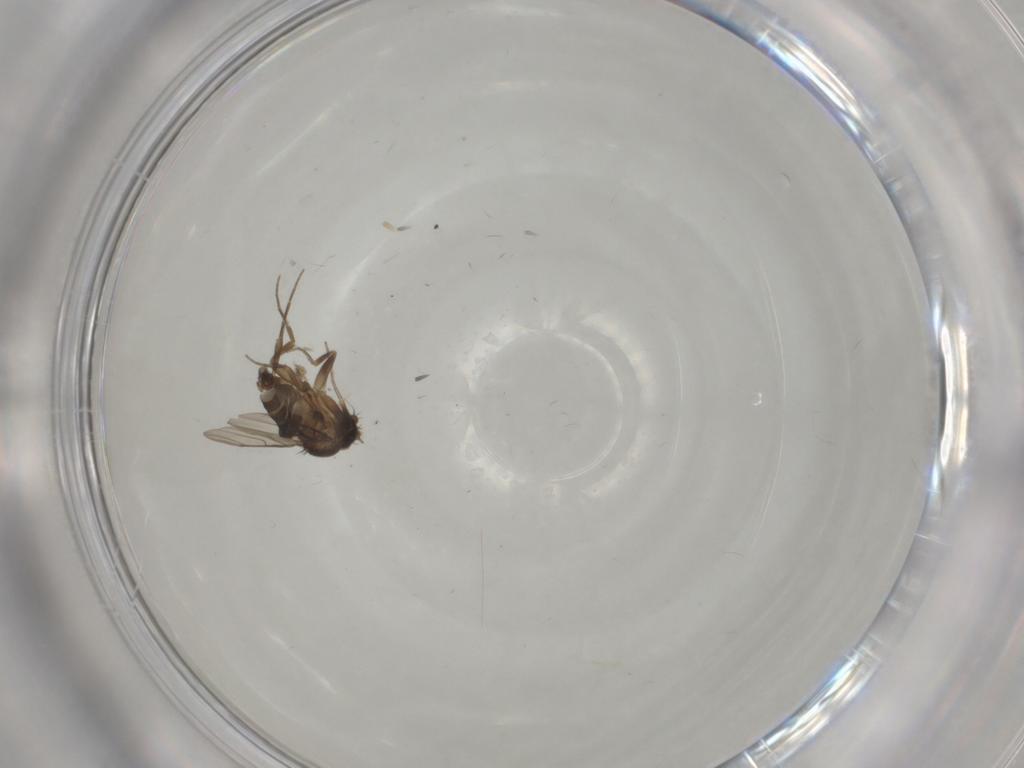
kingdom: Animalia
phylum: Arthropoda
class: Insecta
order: Diptera
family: Phoridae
